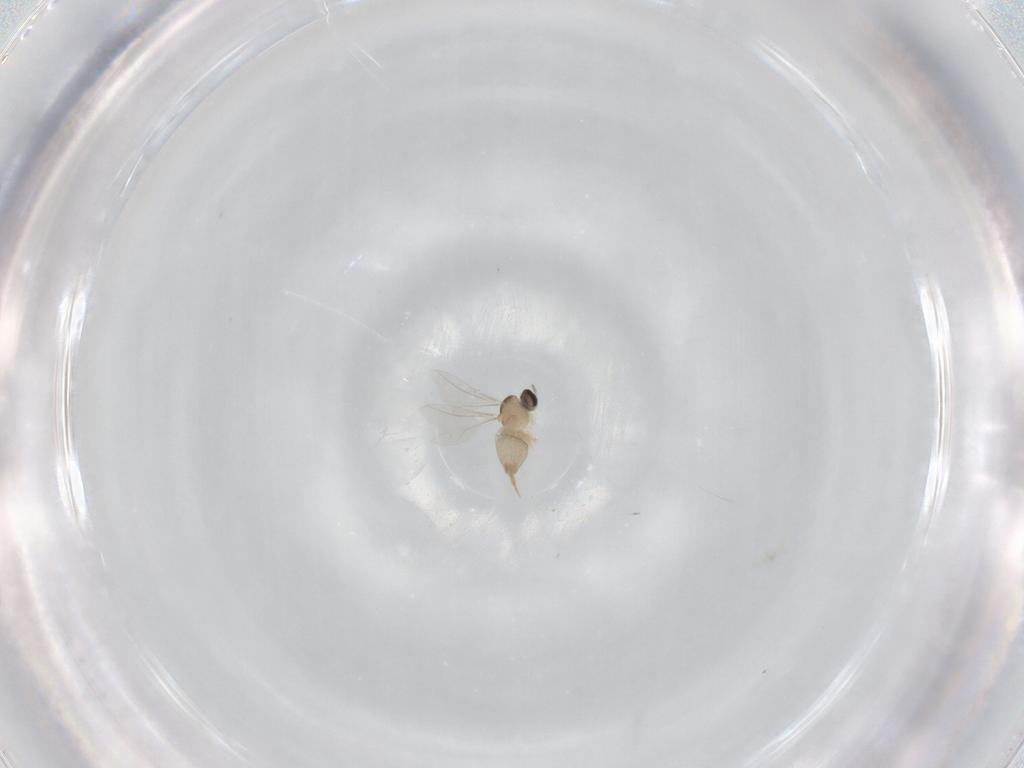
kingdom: Animalia
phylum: Arthropoda
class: Insecta
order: Diptera
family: Cecidomyiidae
